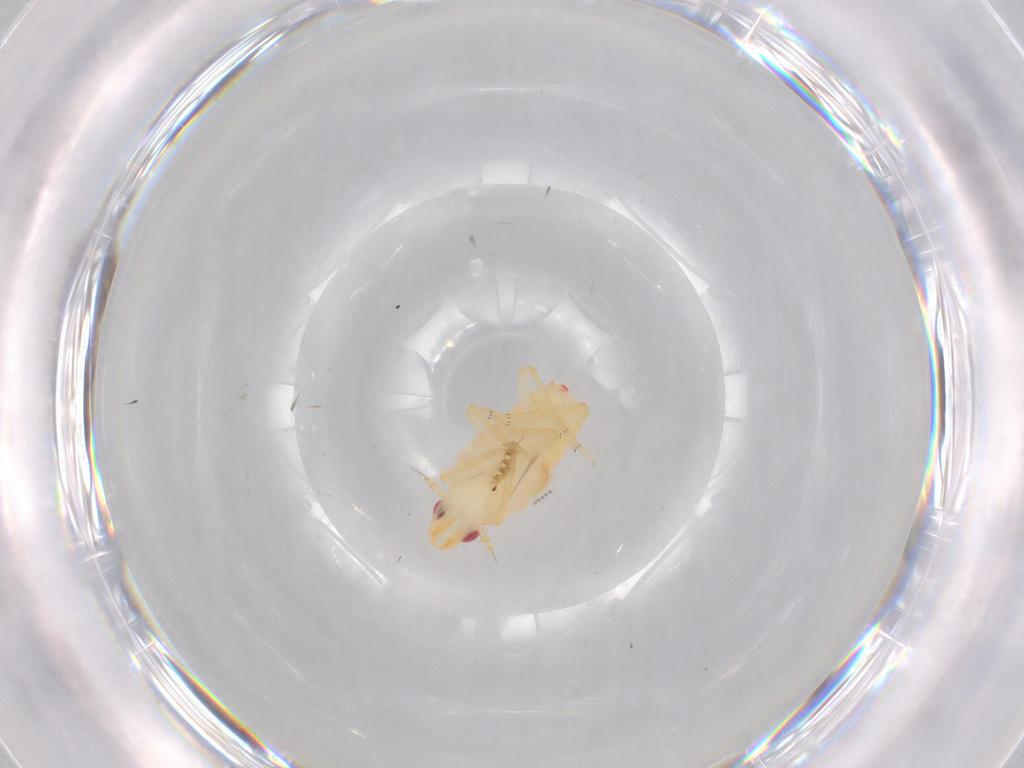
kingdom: Animalia
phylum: Arthropoda
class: Insecta
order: Hemiptera
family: Flatidae
